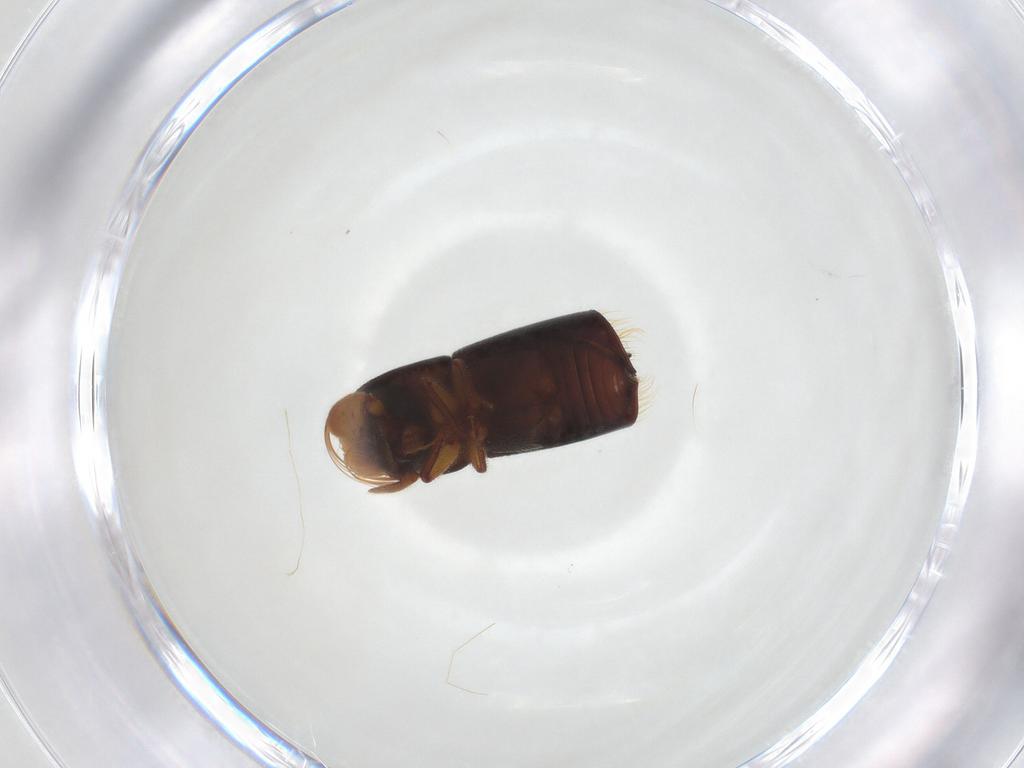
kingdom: Animalia
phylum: Arthropoda
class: Insecta
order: Coleoptera
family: Curculionidae
